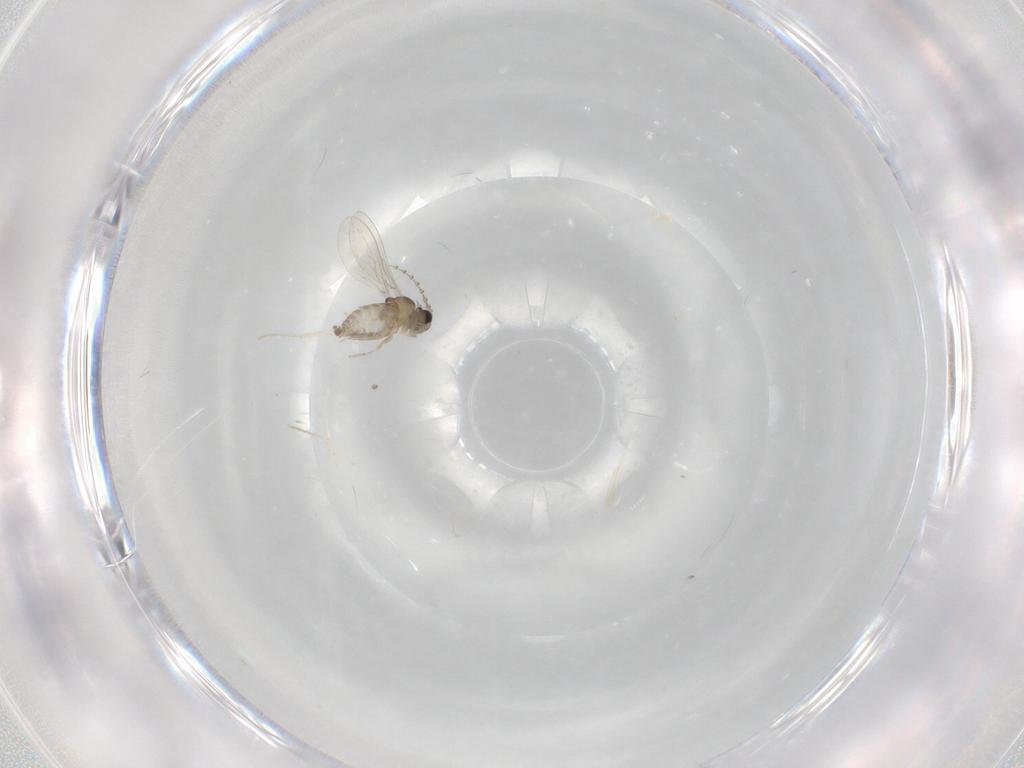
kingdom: Animalia
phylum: Arthropoda
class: Insecta
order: Diptera
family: Cecidomyiidae
